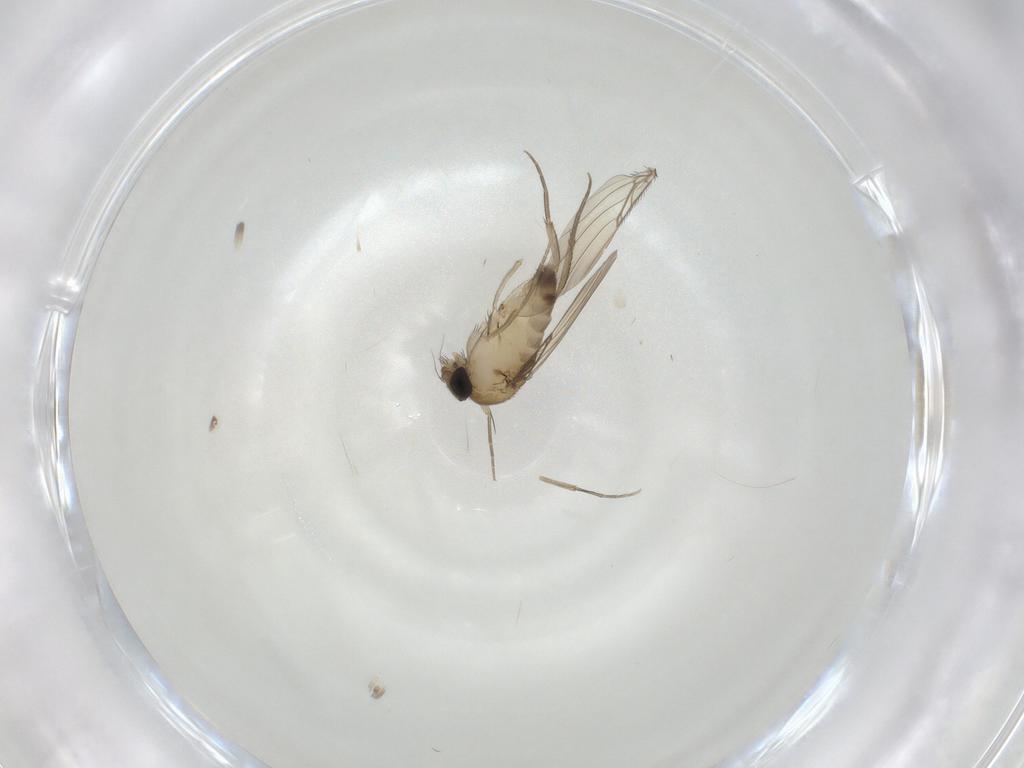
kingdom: Animalia
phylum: Arthropoda
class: Insecta
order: Diptera
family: Phoridae
